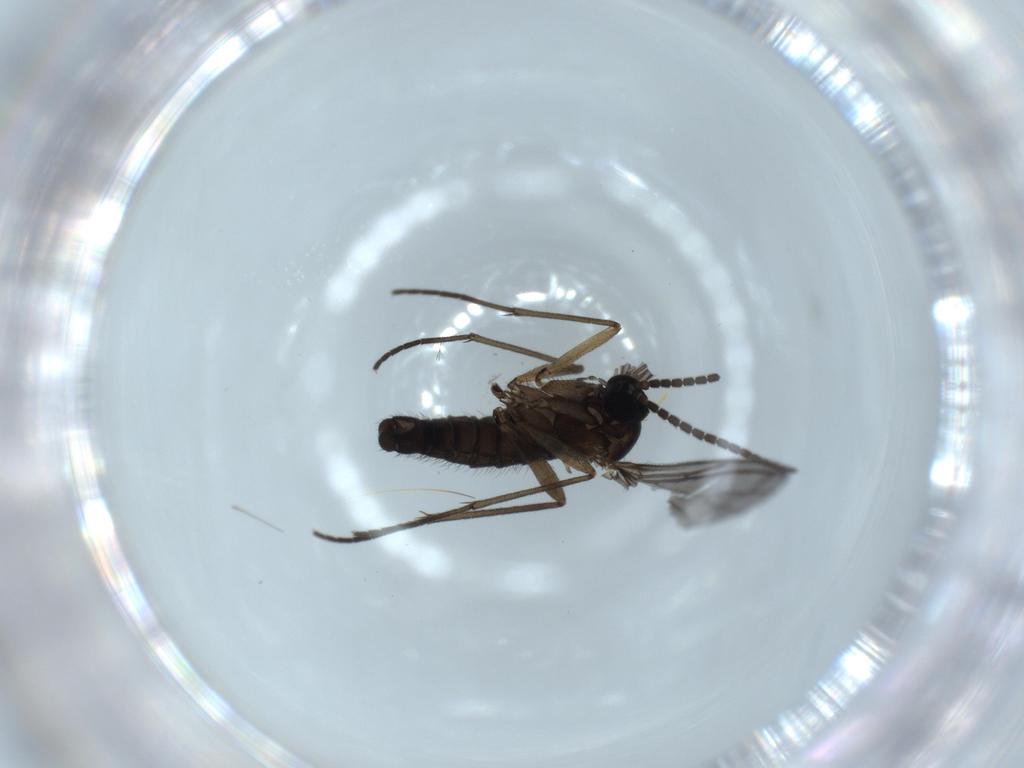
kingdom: Animalia
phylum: Arthropoda
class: Insecta
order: Diptera
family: Sciaridae
